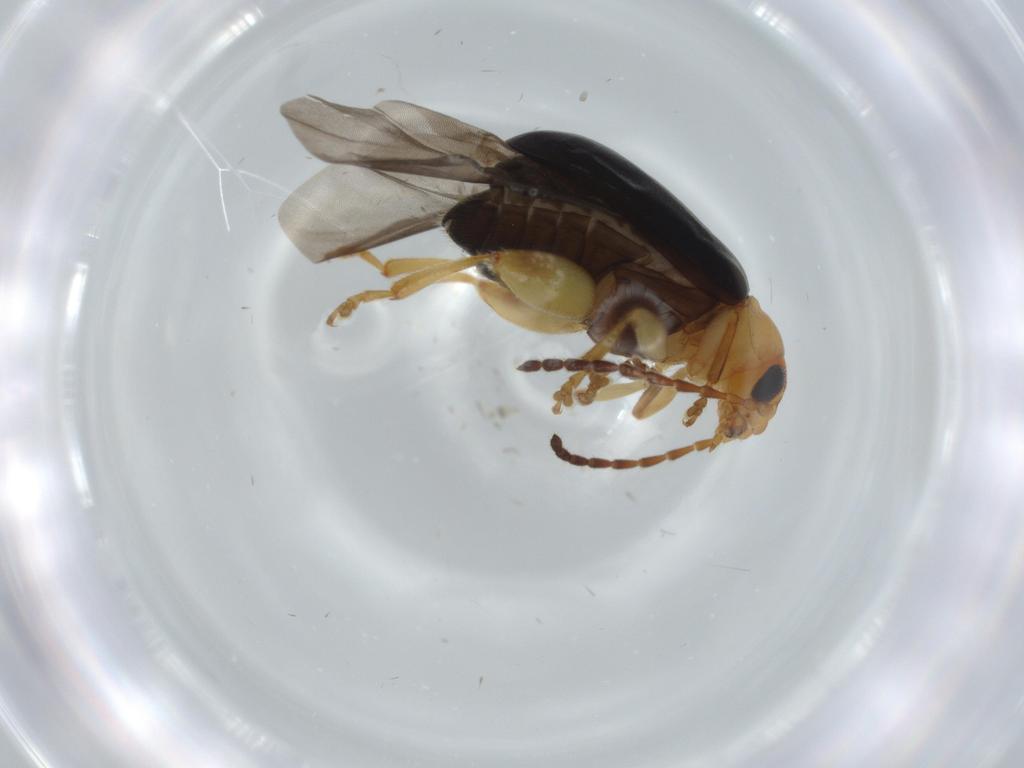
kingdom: Animalia
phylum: Arthropoda
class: Insecta
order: Coleoptera
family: Chrysomelidae
